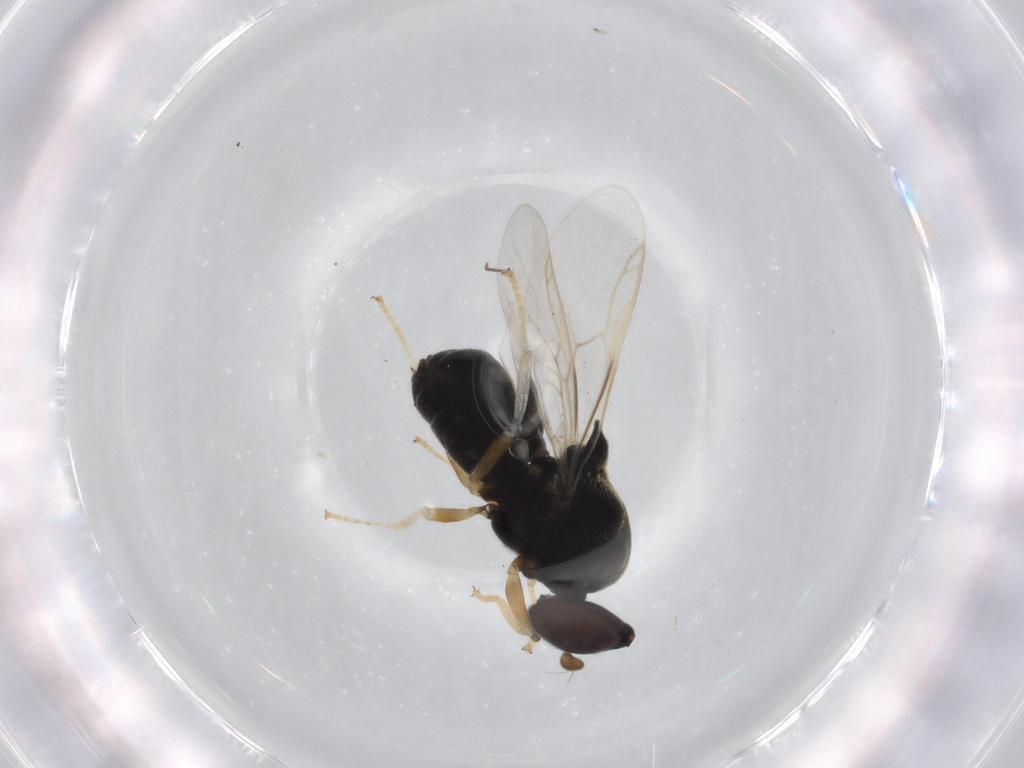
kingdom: Animalia
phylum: Arthropoda
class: Insecta
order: Diptera
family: Stratiomyidae
